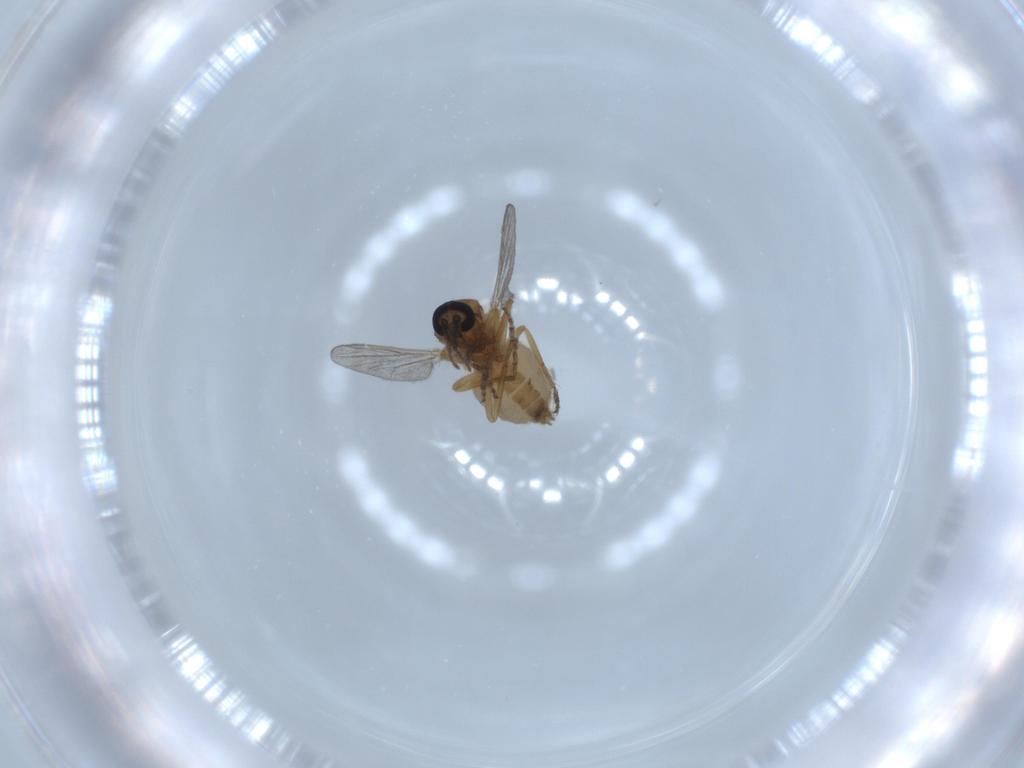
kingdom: Animalia
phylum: Arthropoda
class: Insecta
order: Diptera
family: Ceratopogonidae
